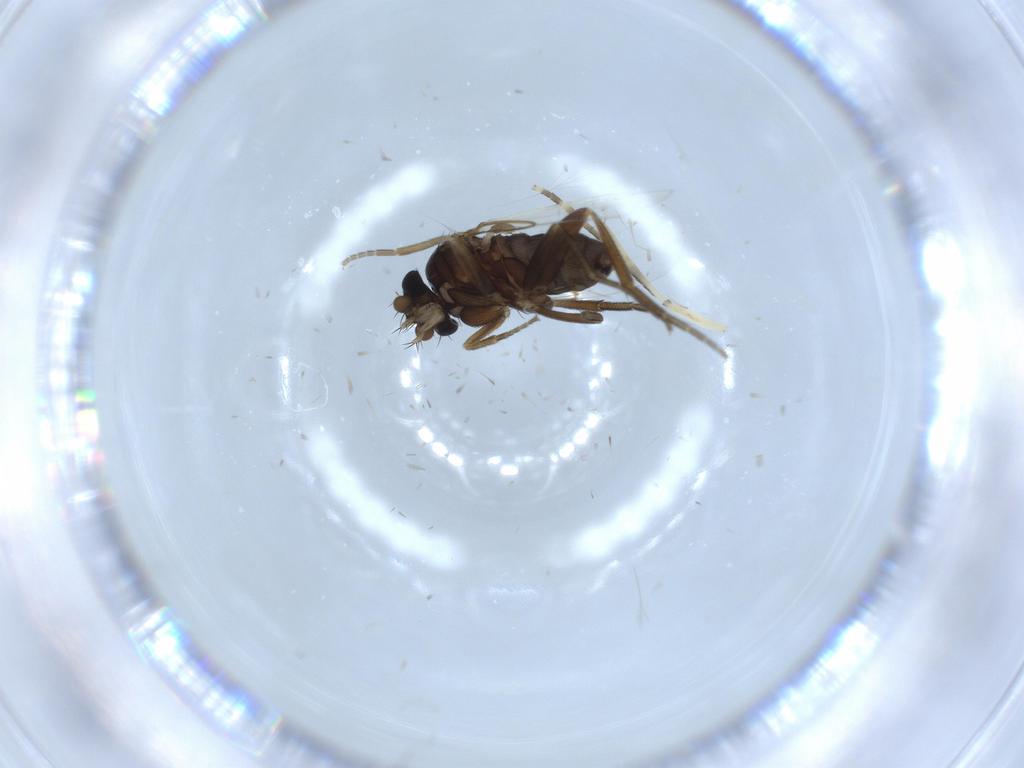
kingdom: Animalia
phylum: Arthropoda
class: Insecta
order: Diptera
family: Phoridae
